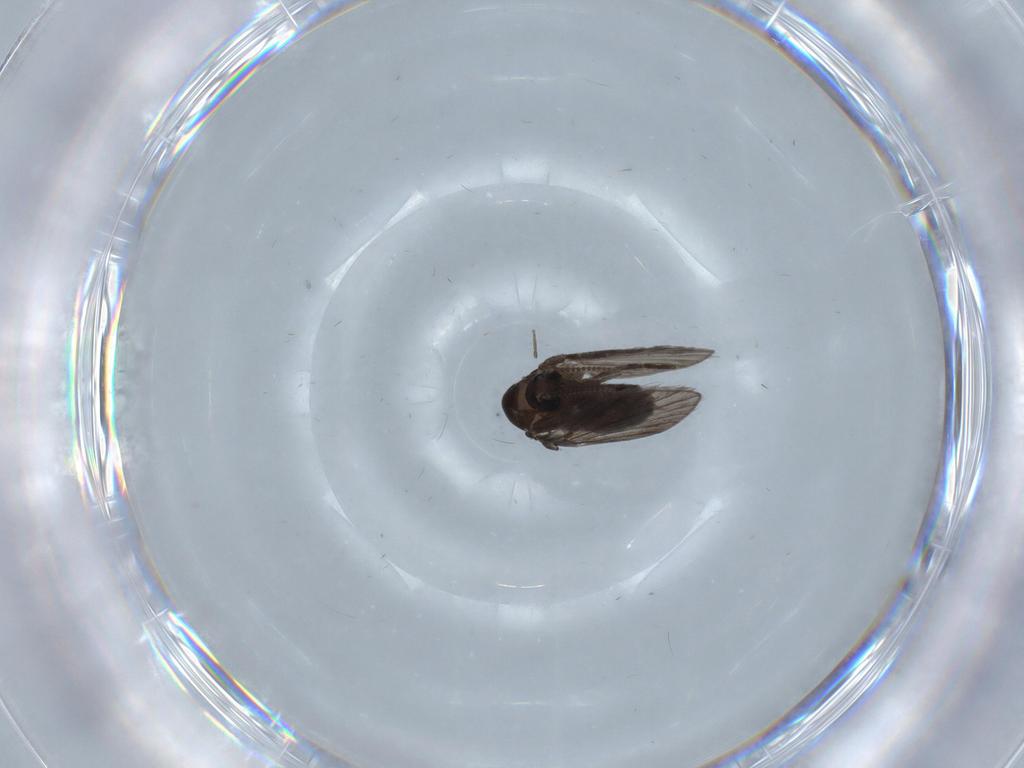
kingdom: Animalia
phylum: Arthropoda
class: Insecta
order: Diptera
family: Psychodidae
